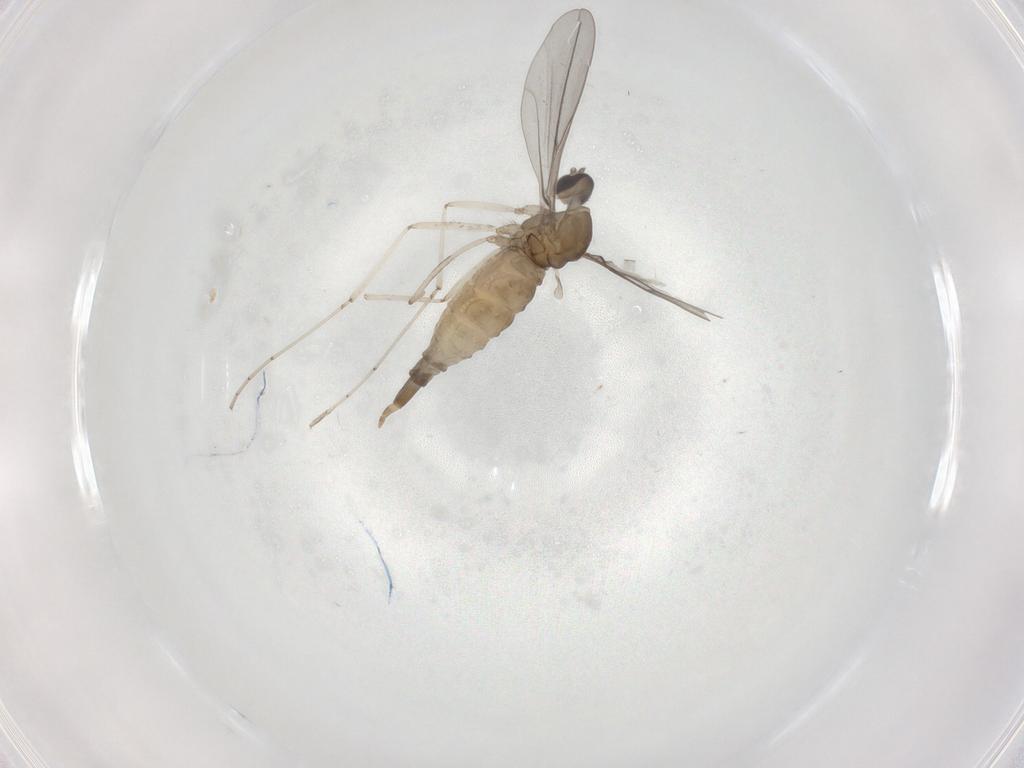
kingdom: Animalia
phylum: Arthropoda
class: Insecta
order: Diptera
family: Cecidomyiidae
